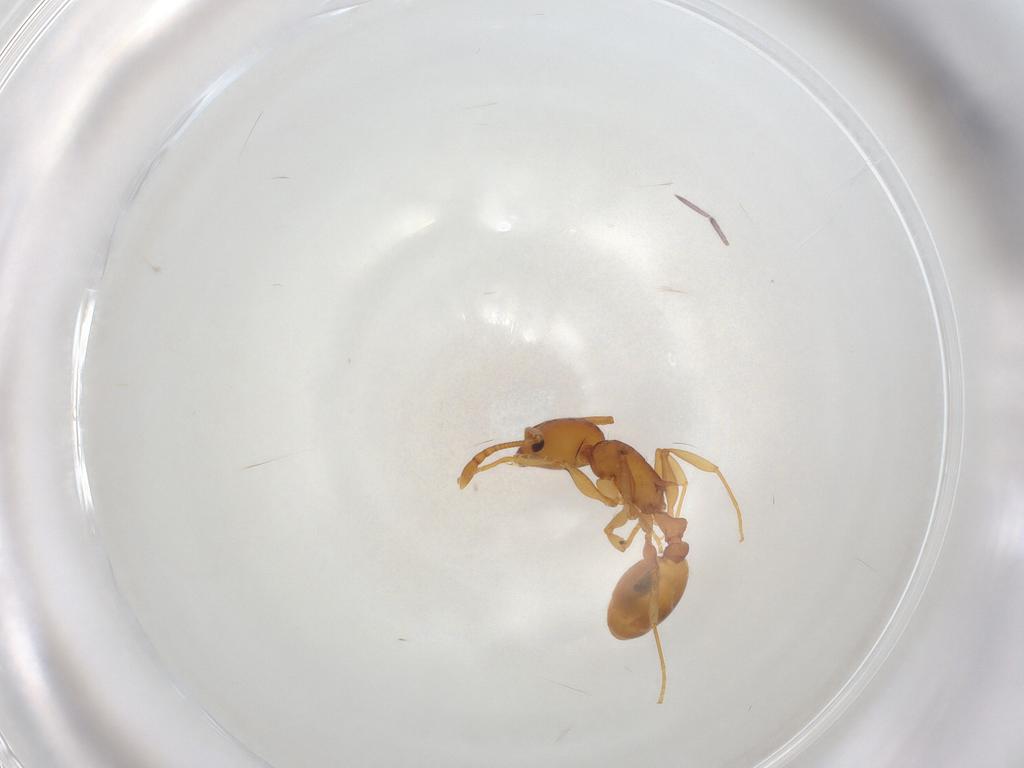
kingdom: Animalia
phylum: Arthropoda
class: Insecta
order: Hymenoptera
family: Formicidae
